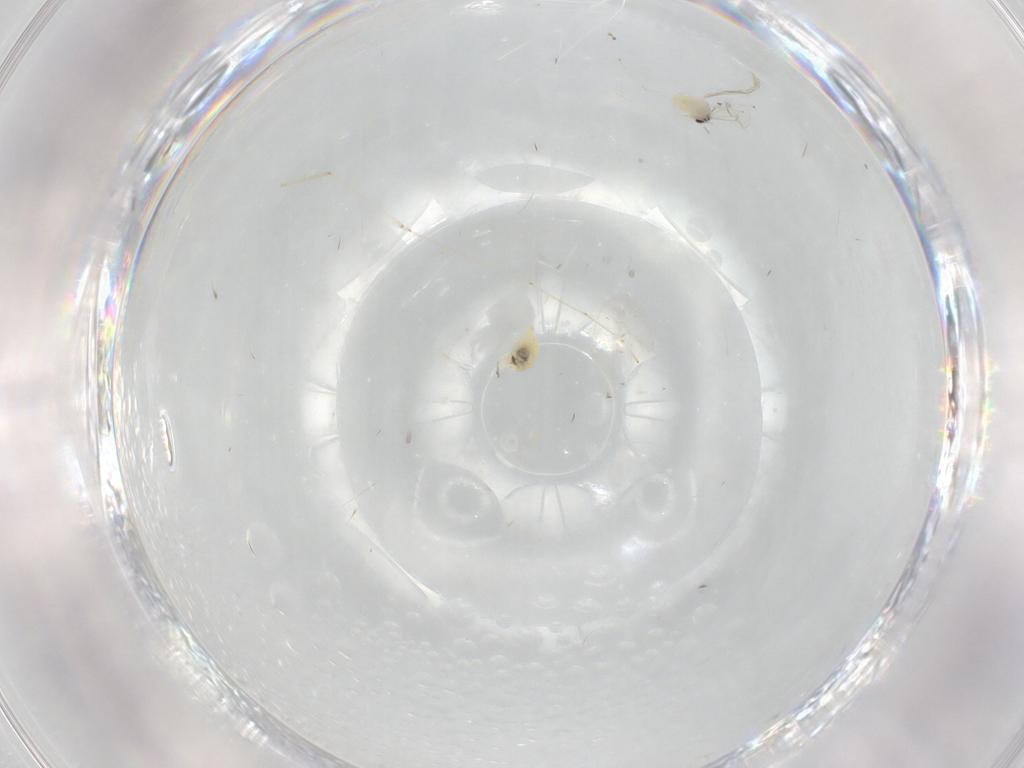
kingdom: Animalia
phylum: Arthropoda
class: Insecta
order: Diptera
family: Cecidomyiidae
